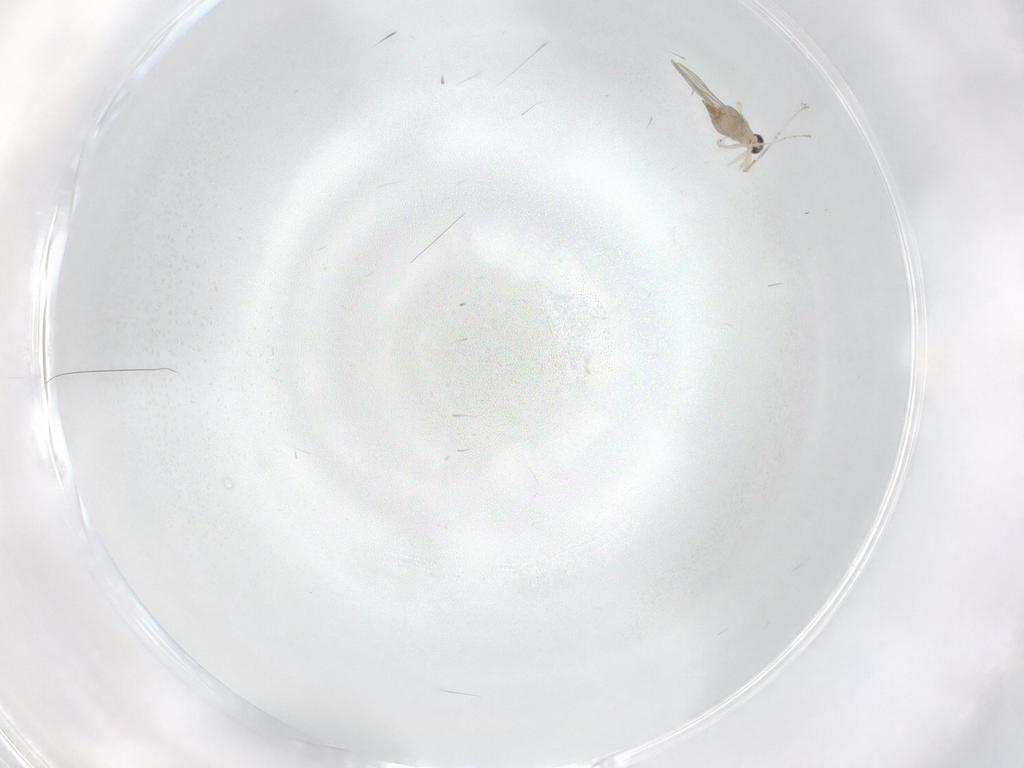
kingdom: Animalia
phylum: Arthropoda
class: Insecta
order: Diptera
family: Cecidomyiidae
